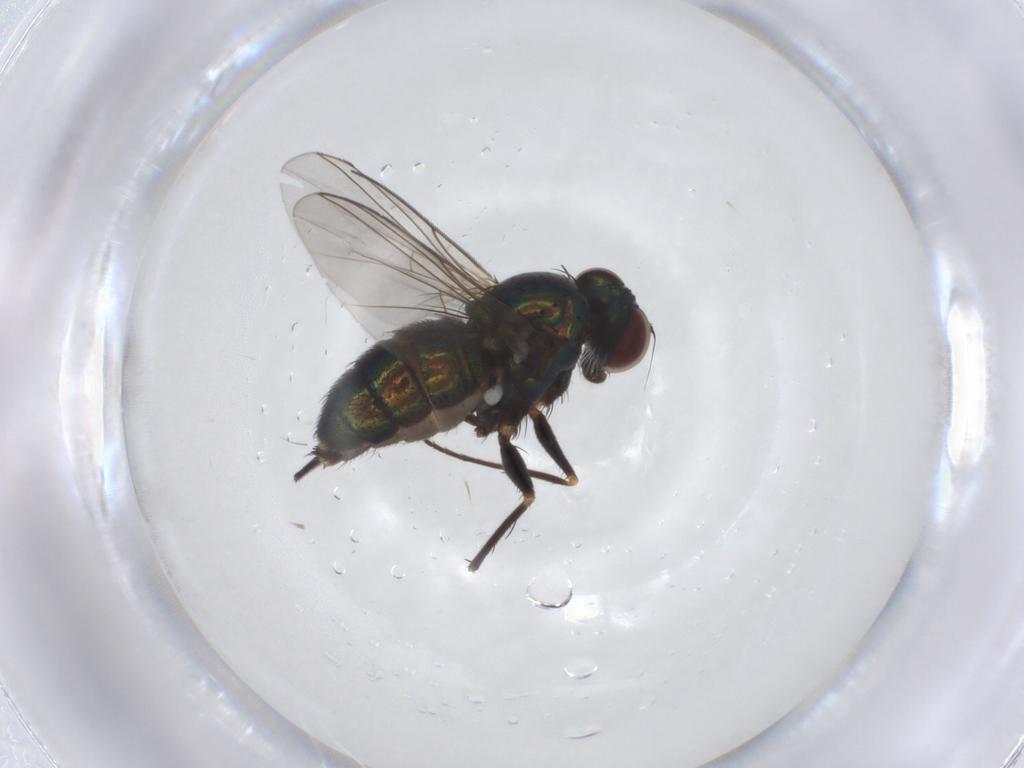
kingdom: Animalia
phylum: Arthropoda
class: Insecta
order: Diptera
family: Dolichopodidae
